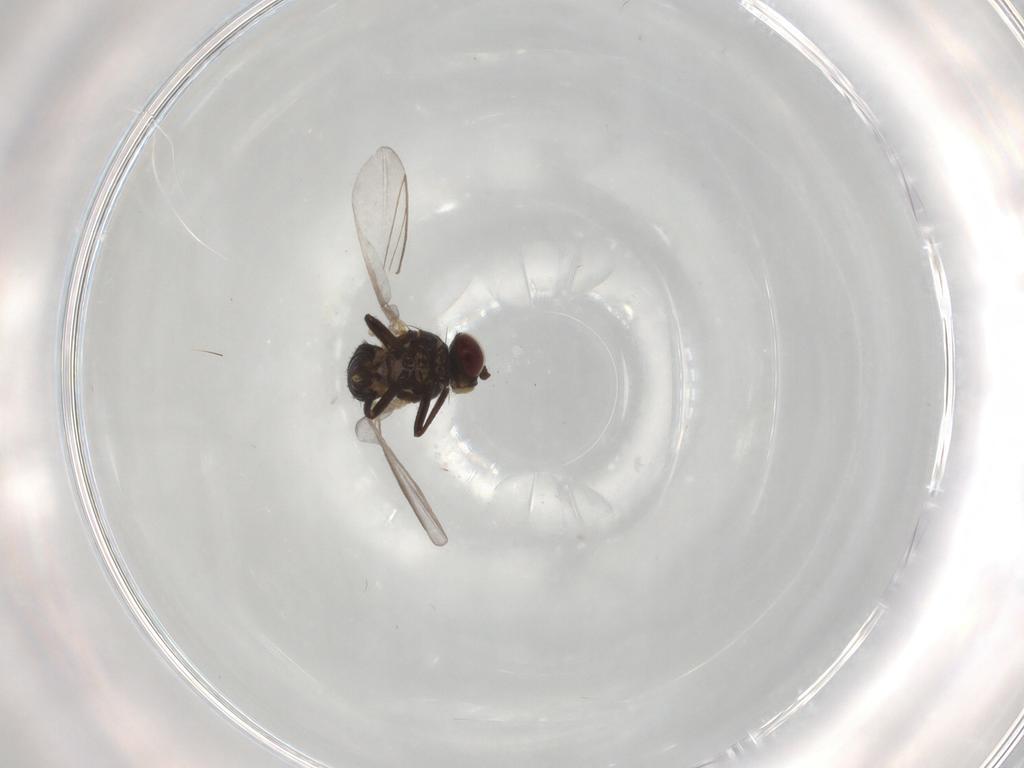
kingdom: Animalia
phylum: Arthropoda
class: Insecta
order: Diptera
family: Agromyzidae
